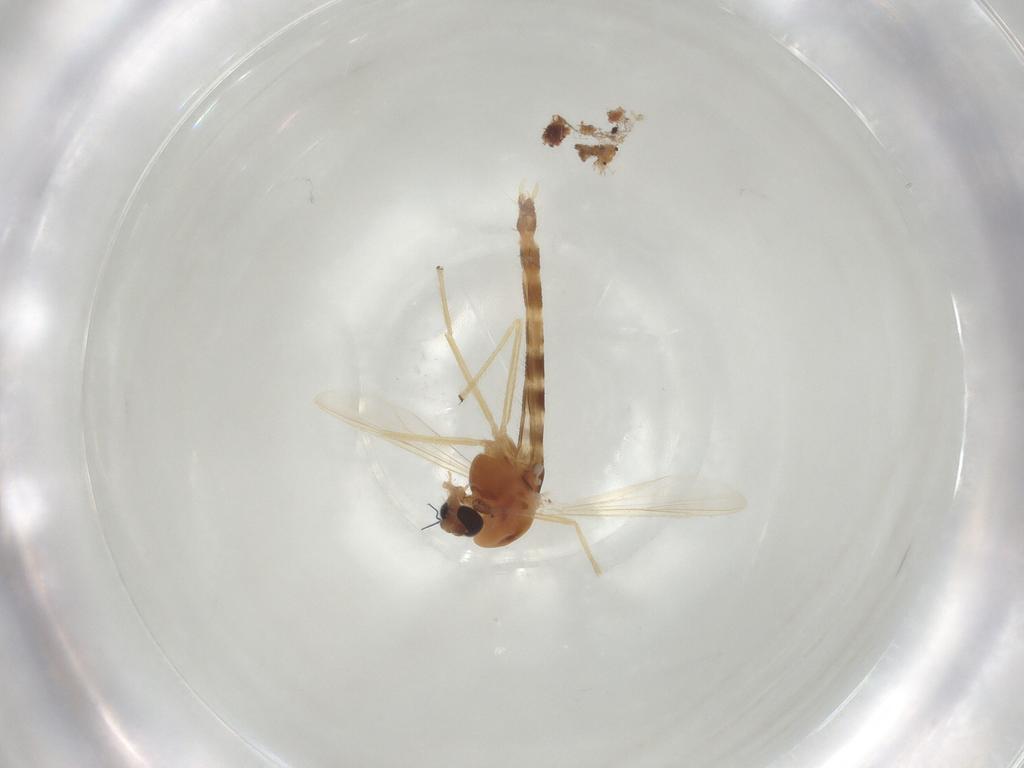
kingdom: Animalia
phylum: Arthropoda
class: Insecta
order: Diptera
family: Chironomidae
